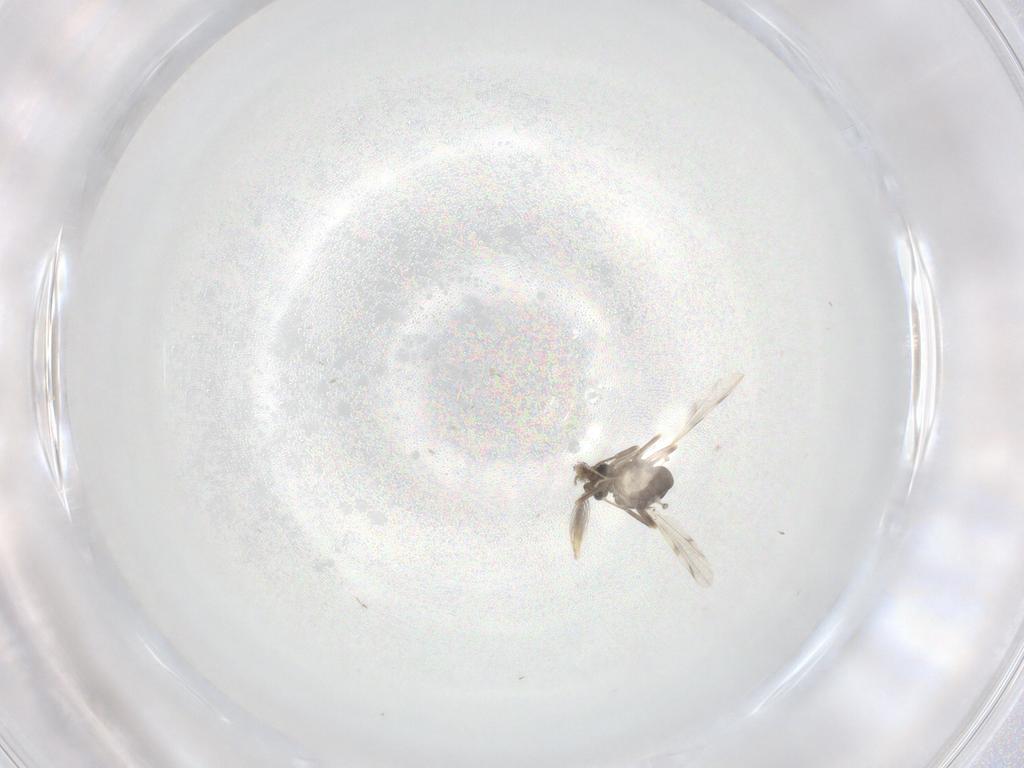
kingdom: Animalia
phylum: Arthropoda
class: Insecta
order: Diptera
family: Ceratopogonidae
